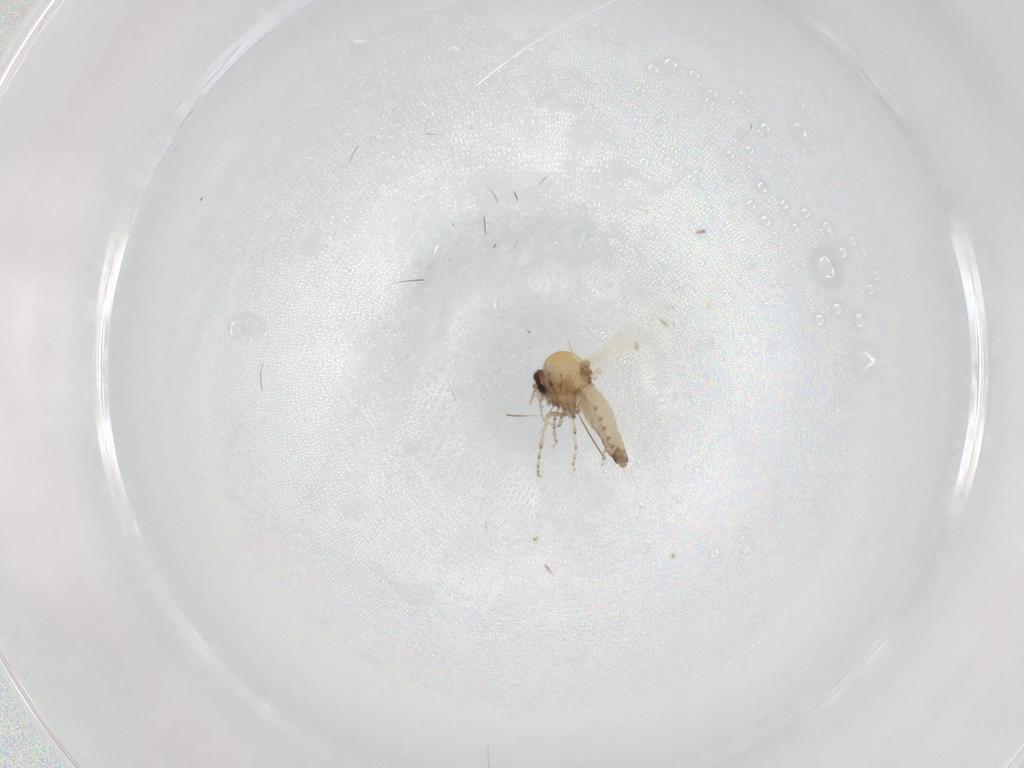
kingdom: Animalia
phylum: Arthropoda
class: Insecta
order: Diptera
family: Ceratopogonidae
